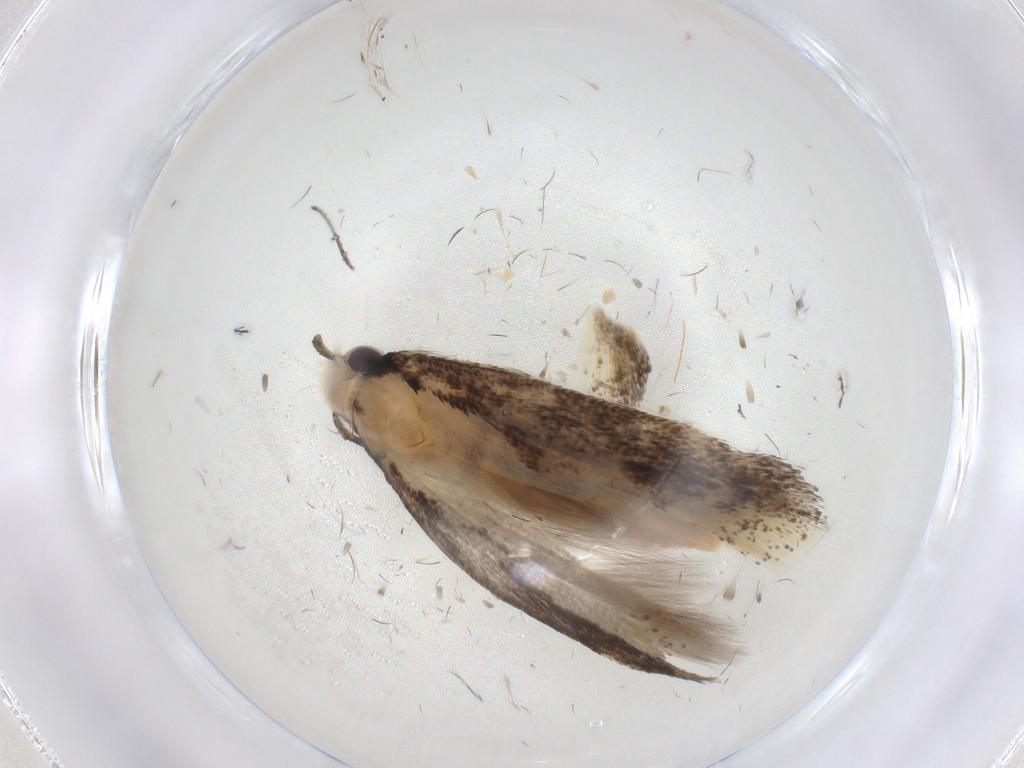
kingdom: Animalia
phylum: Arthropoda
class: Insecta
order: Lepidoptera
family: Gelechiidae
